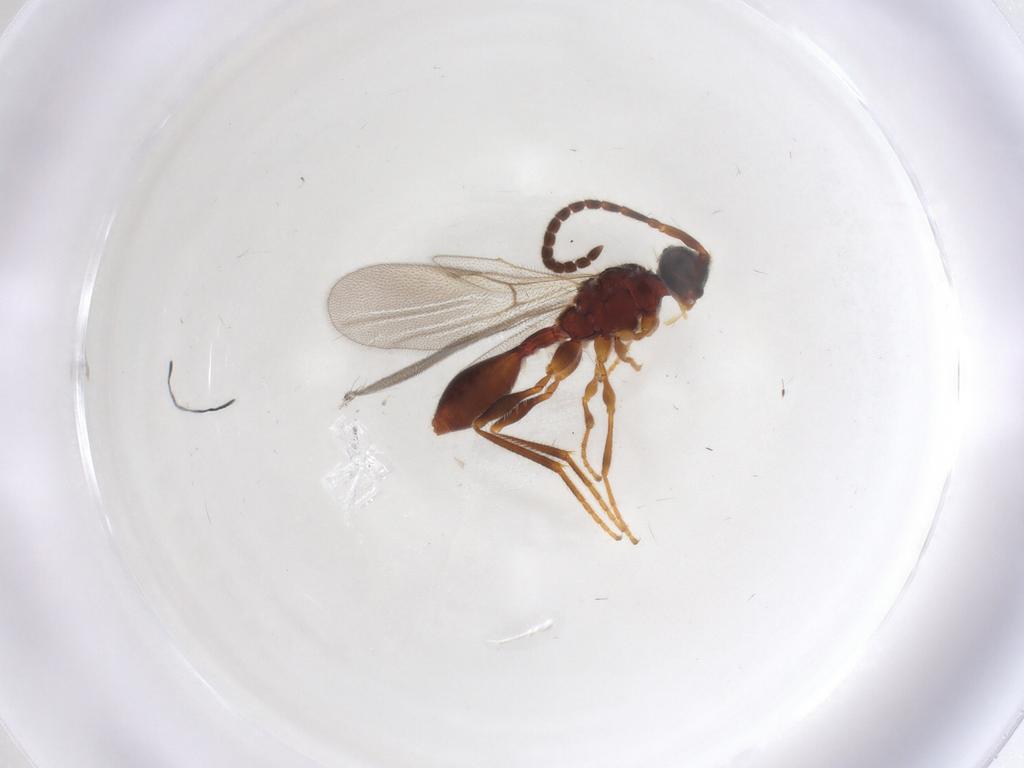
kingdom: Animalia
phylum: Arthropoda
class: Insecta
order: Hymenoptera
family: Diapriidae
